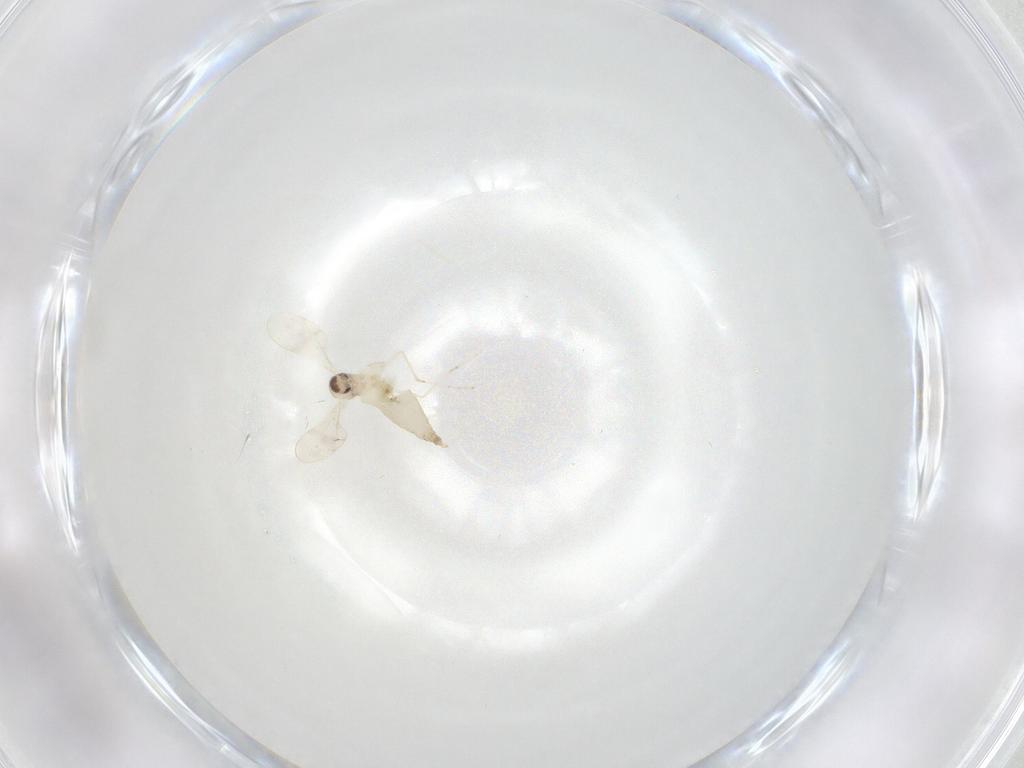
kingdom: Animalia
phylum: Arthropoda
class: Insecta
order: Diptera
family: Cecidomyiidae
